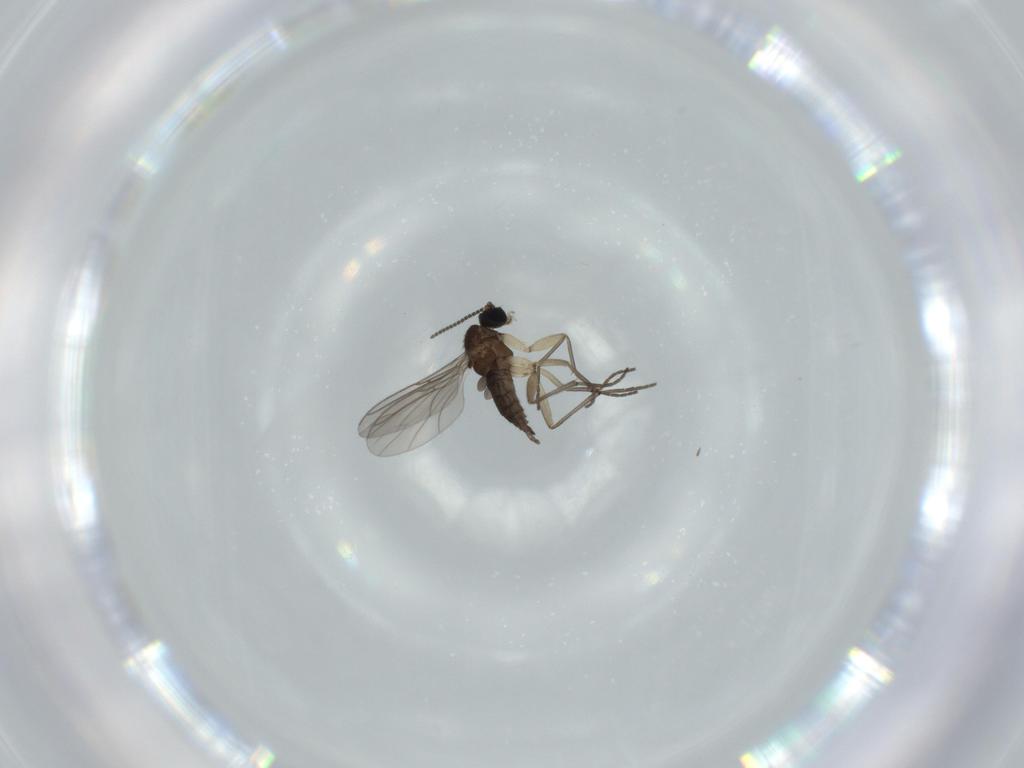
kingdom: Animalia
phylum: Arthropoda
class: Insecta
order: Diptera
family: Sciaridae
